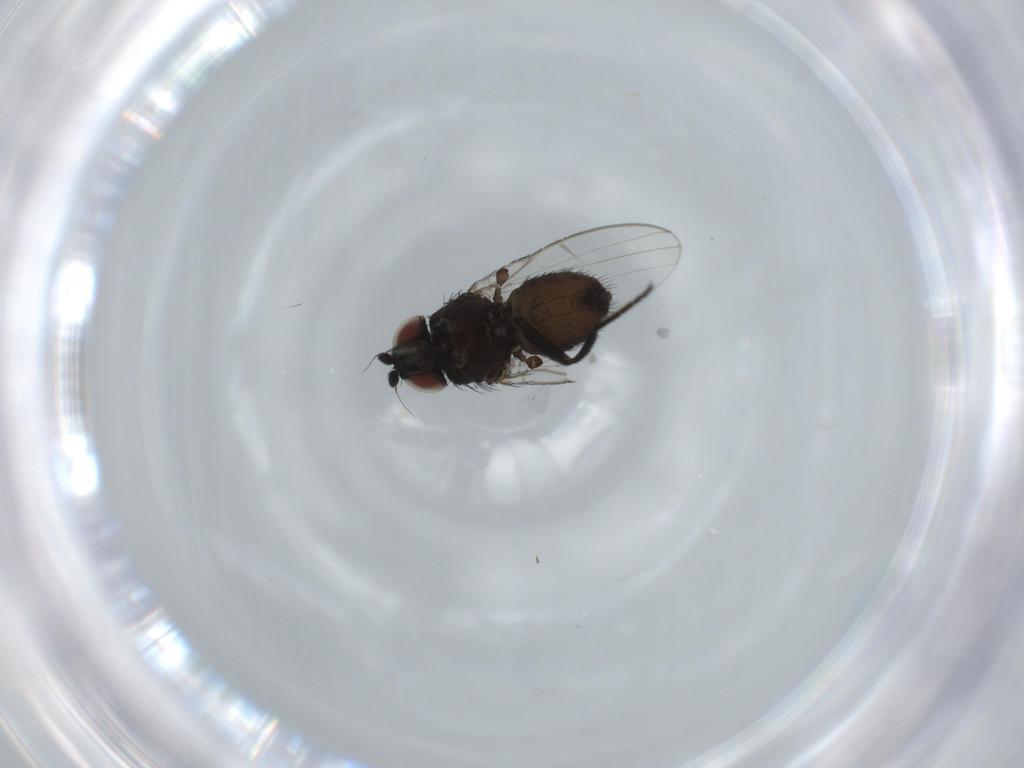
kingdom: Animalia
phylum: Arthropoda
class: Insecta
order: Diptera
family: Milichiidae
